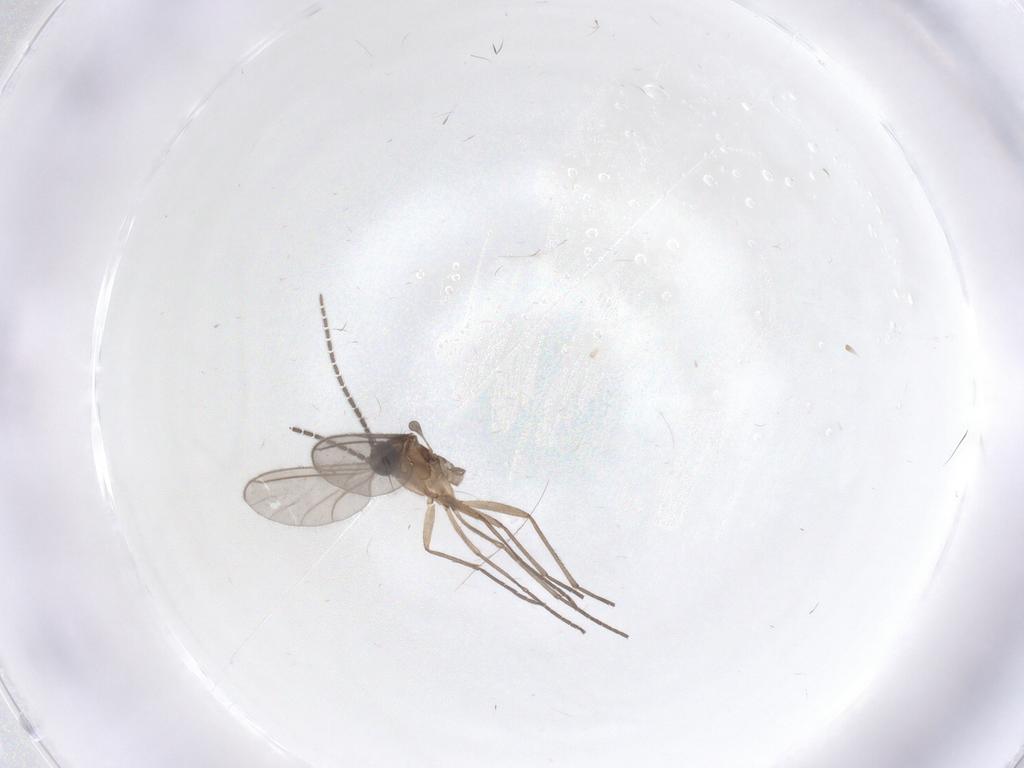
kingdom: Animalia
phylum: Arthropoda
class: Insecta
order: Diptera
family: Sciaridae
